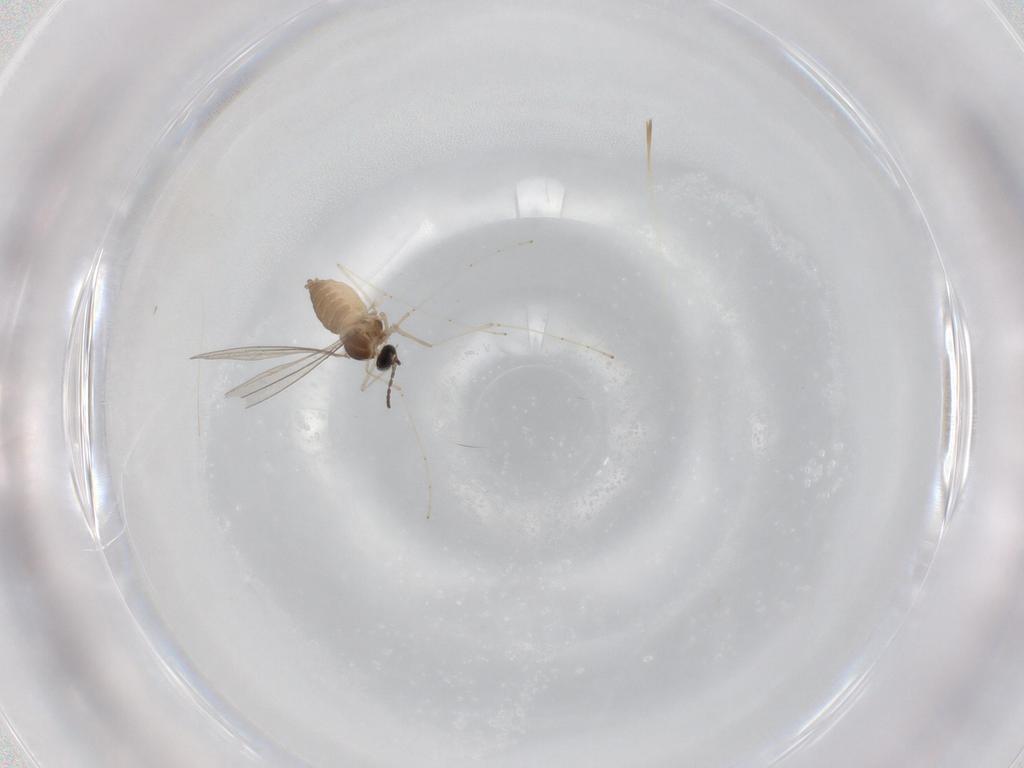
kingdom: Animalia
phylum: Arthropoda
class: Insecta
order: Diptera
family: Cecidomyiidae
